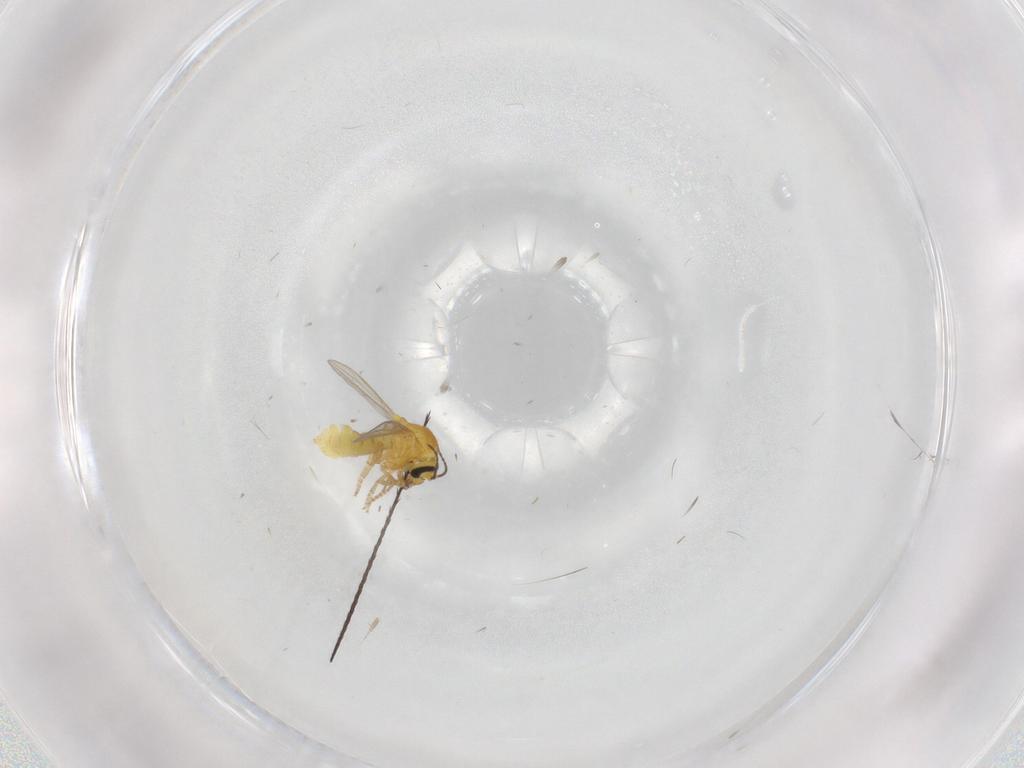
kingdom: Animalia
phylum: Arthropoda
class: Insecta
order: Diptera
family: Ceratopogonidae
